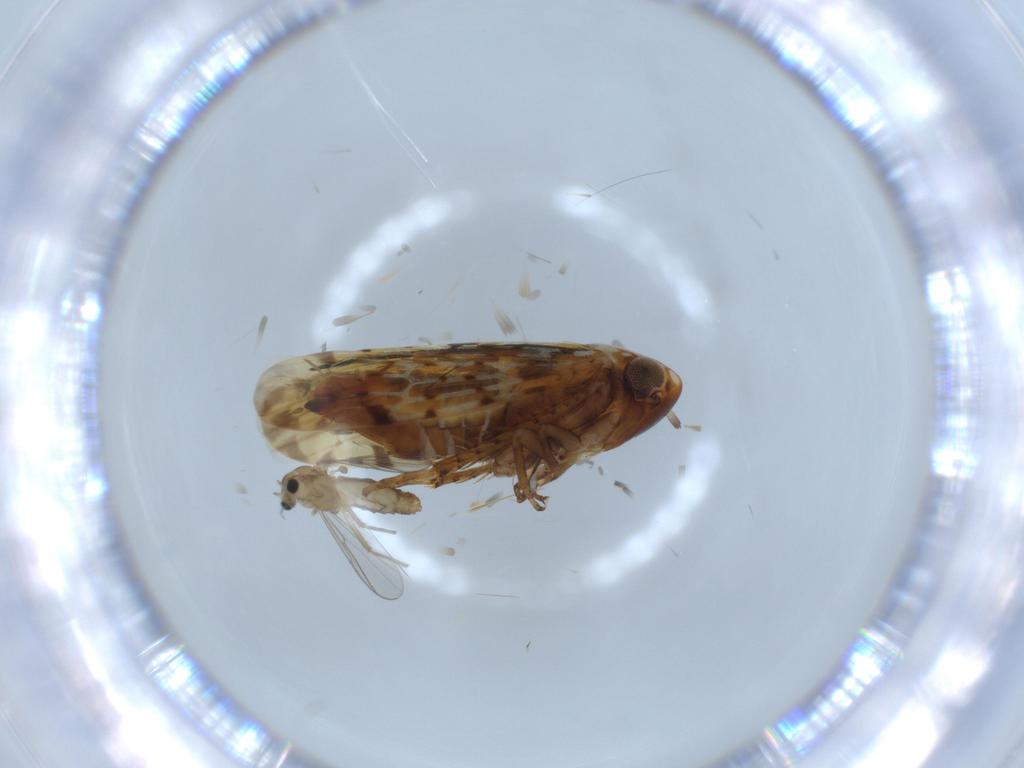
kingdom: Animalia
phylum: Arthropoda
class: Insecta
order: Hemiptera
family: Cicadellidae
